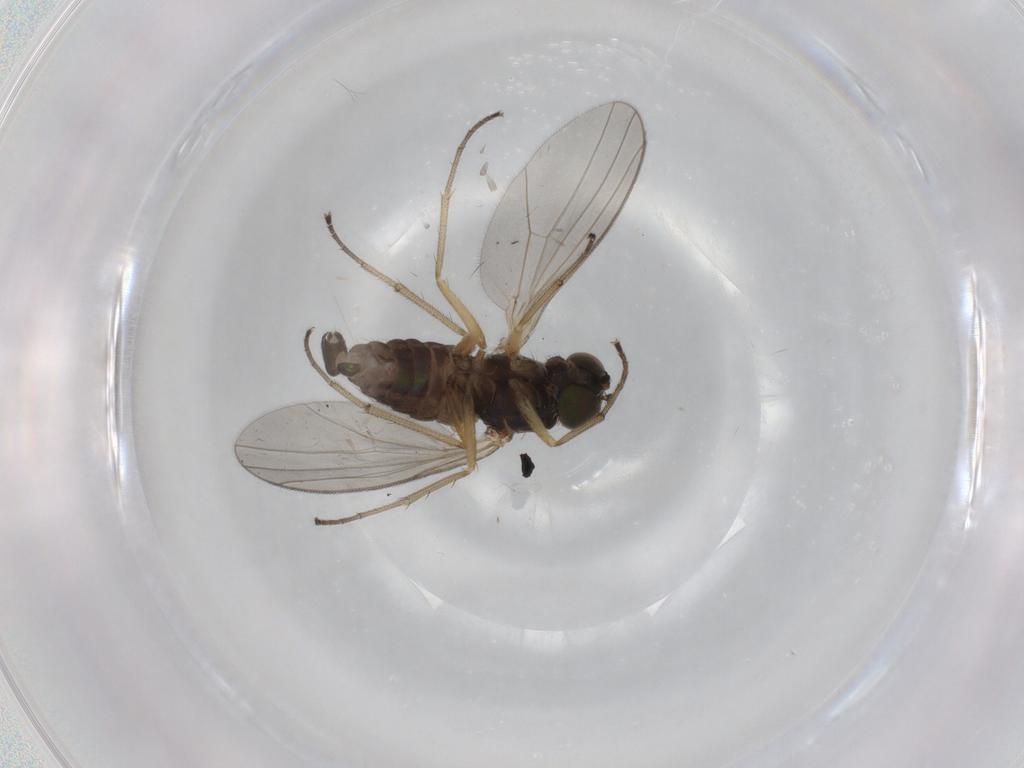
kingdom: Animalia
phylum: Arthropoda
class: Insecta
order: Diptera
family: Dolichopodidae
